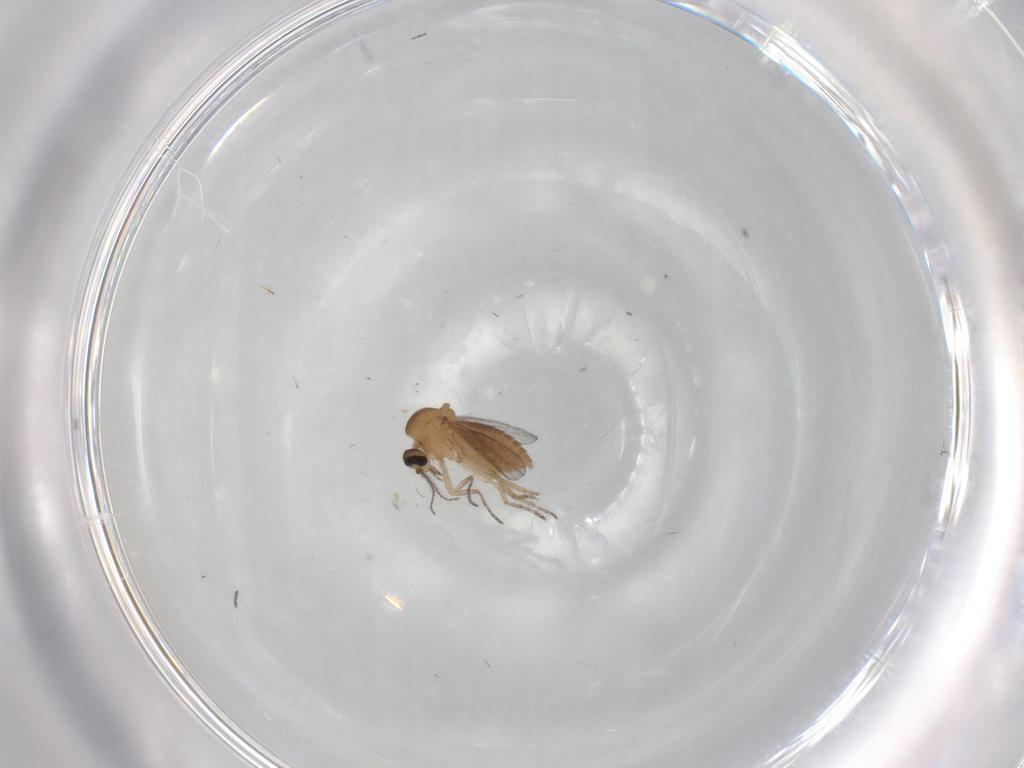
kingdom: Animalia
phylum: Arthropoda
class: Insecta
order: Diptera
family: Ceratopogonidae
